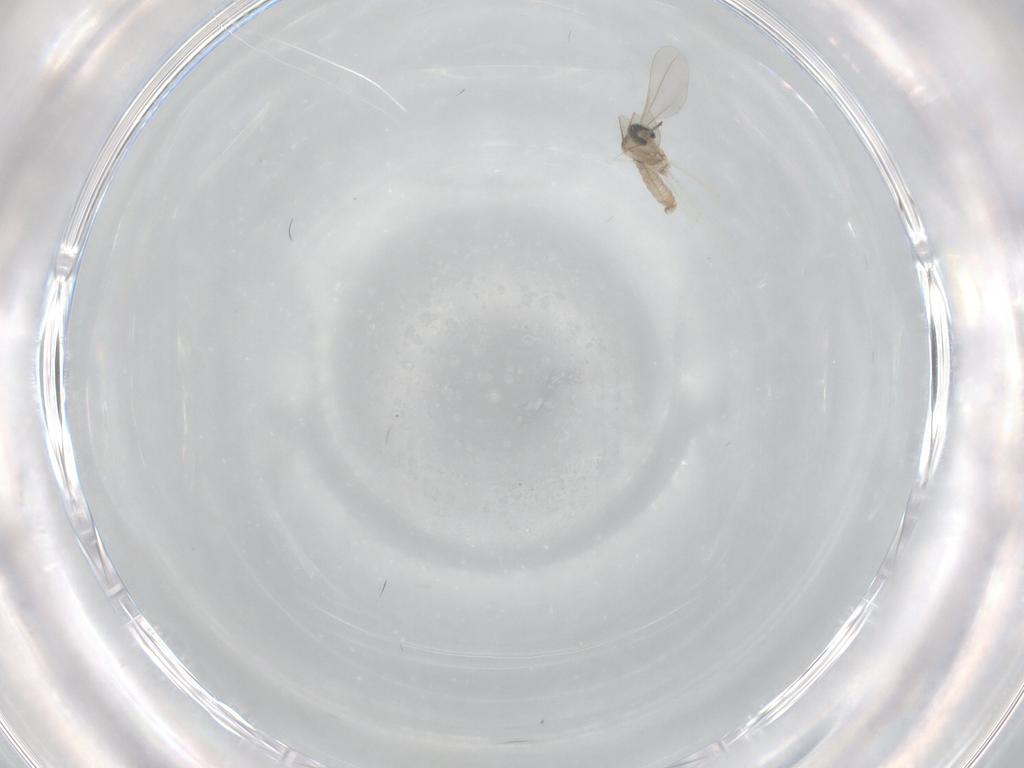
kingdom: Animalia
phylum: Arthropoda
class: Insecta
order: Diptera
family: Cecidomyiidae
